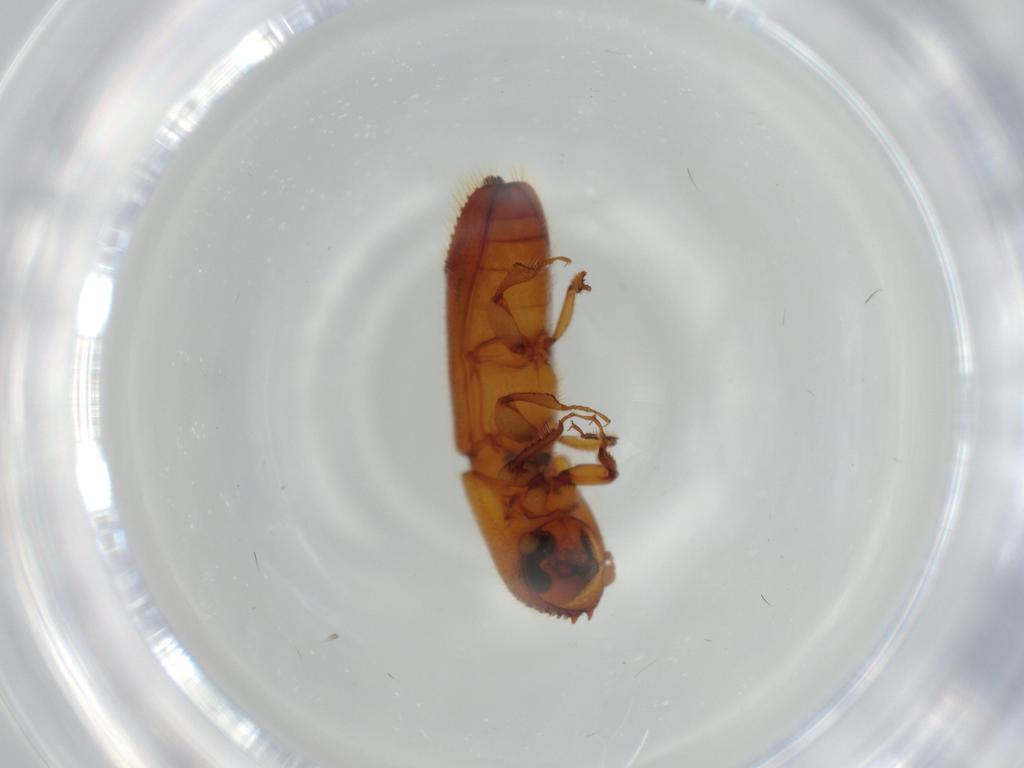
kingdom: Animalia
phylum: Arthropoda
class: Insecta
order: Coleoptera
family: Curculionidae
